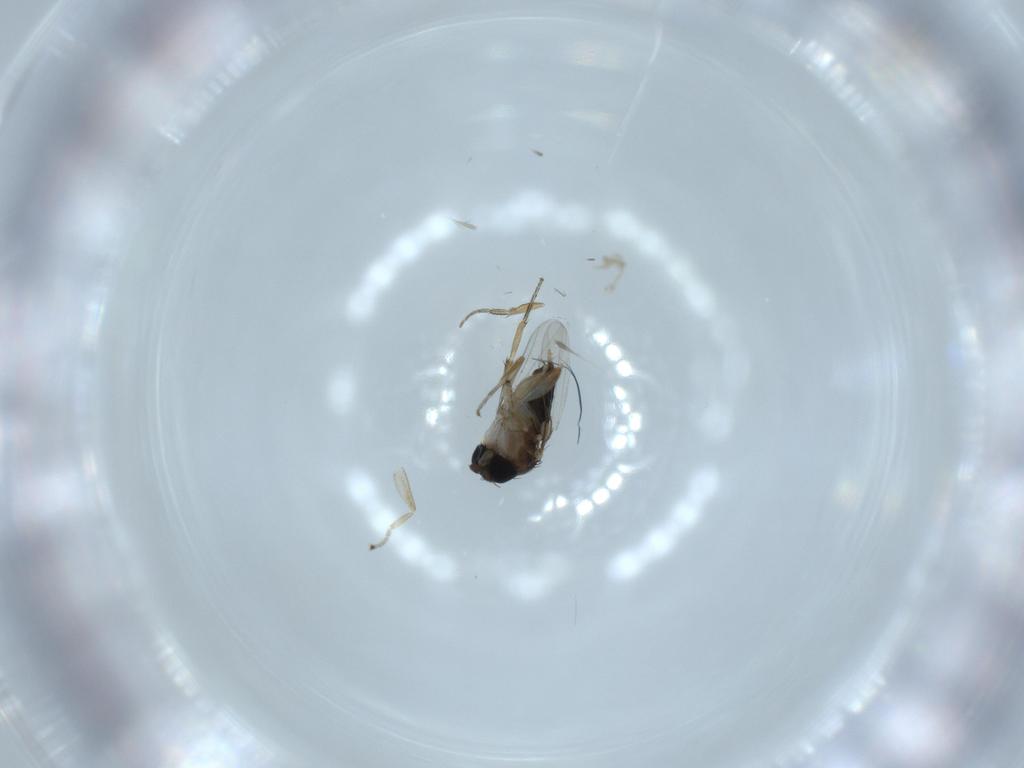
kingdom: Animalia
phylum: Arthropoda
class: Insecta
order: Diptera
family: Phoridae
